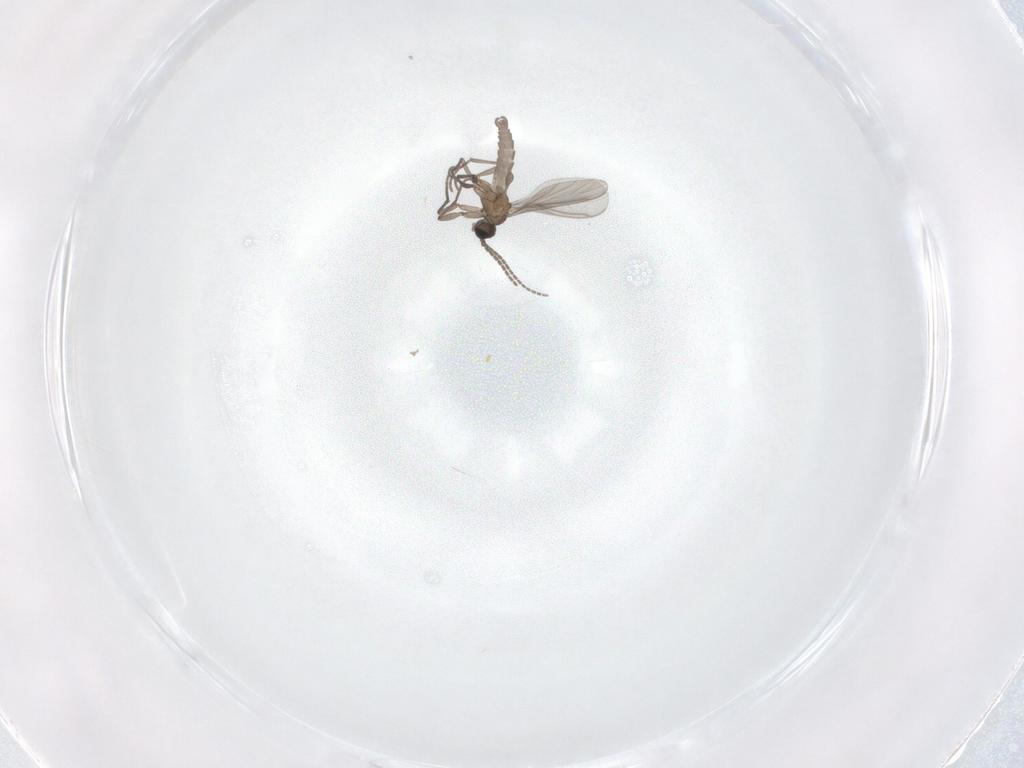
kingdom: Animalia
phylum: Arthropoda
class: Insecta
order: Diptera
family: Sciaridae
